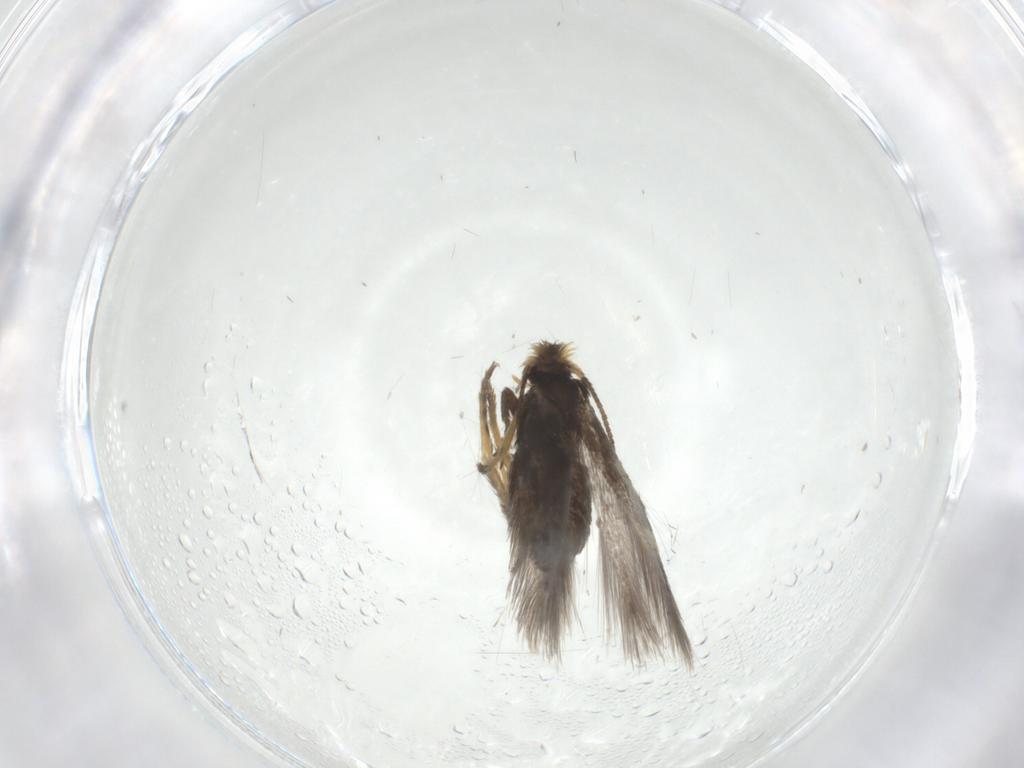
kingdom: Animalia
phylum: Arthropoda
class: Insecta
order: Lepidoptera
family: Nepticulidae
